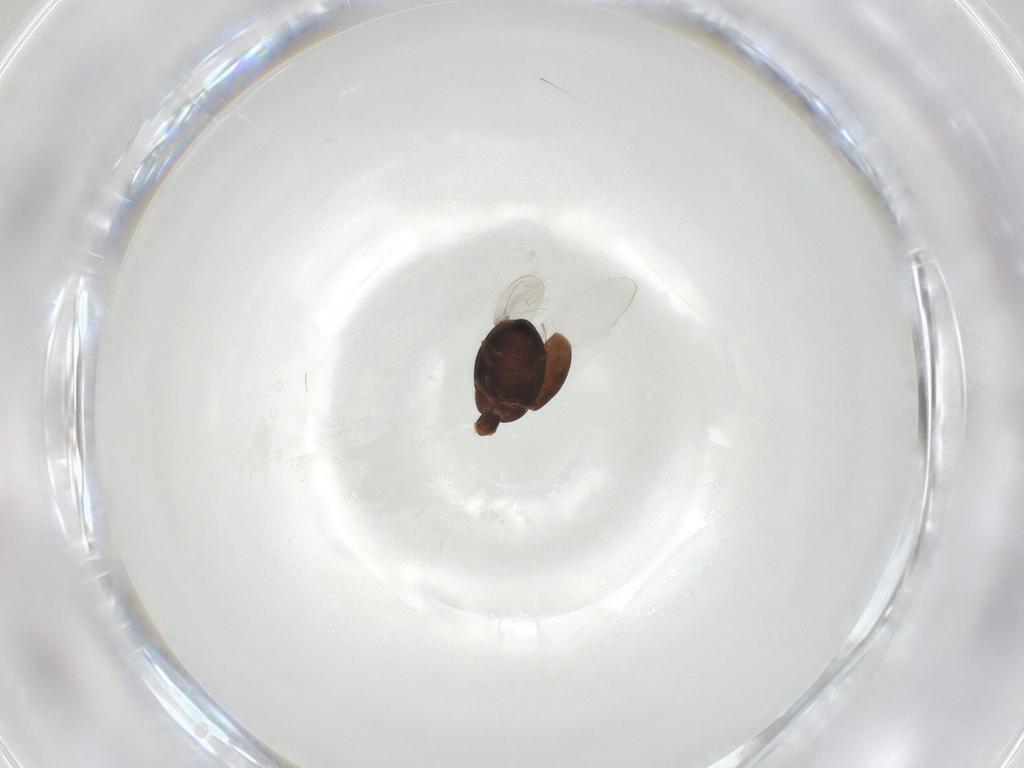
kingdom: Animalia
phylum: Arthropoda
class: Insecta
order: Coleoptera
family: Corylophidae
